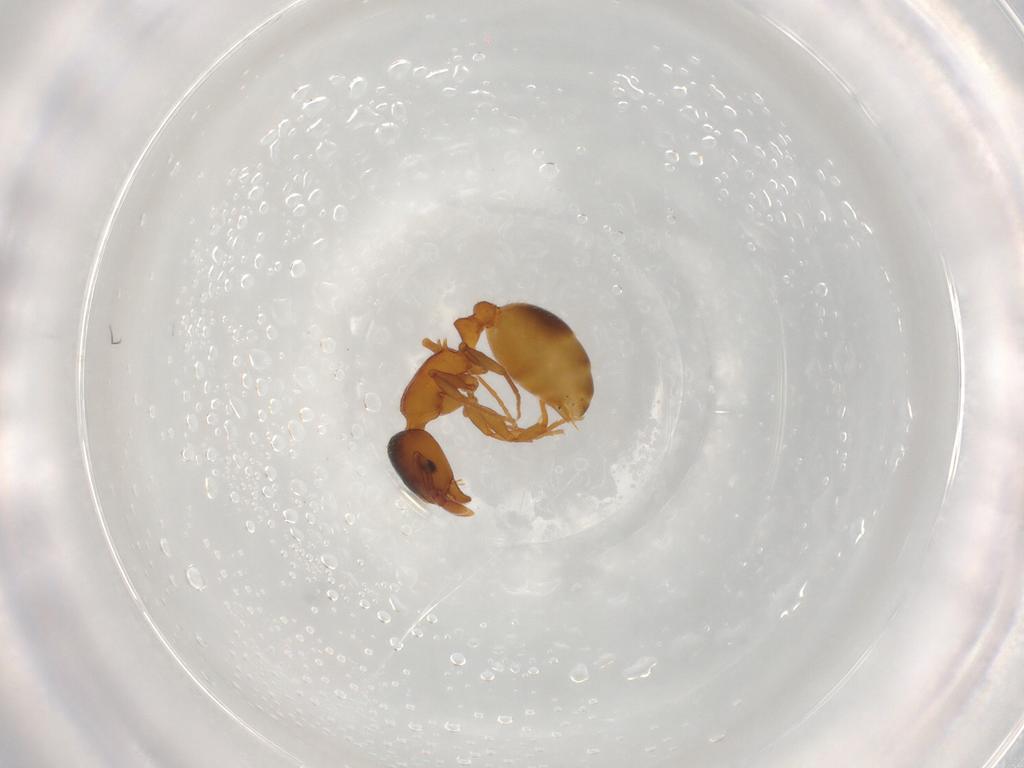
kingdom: Animalia
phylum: Arthropoda
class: Insecta
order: Hymenoptera
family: Formicidae
